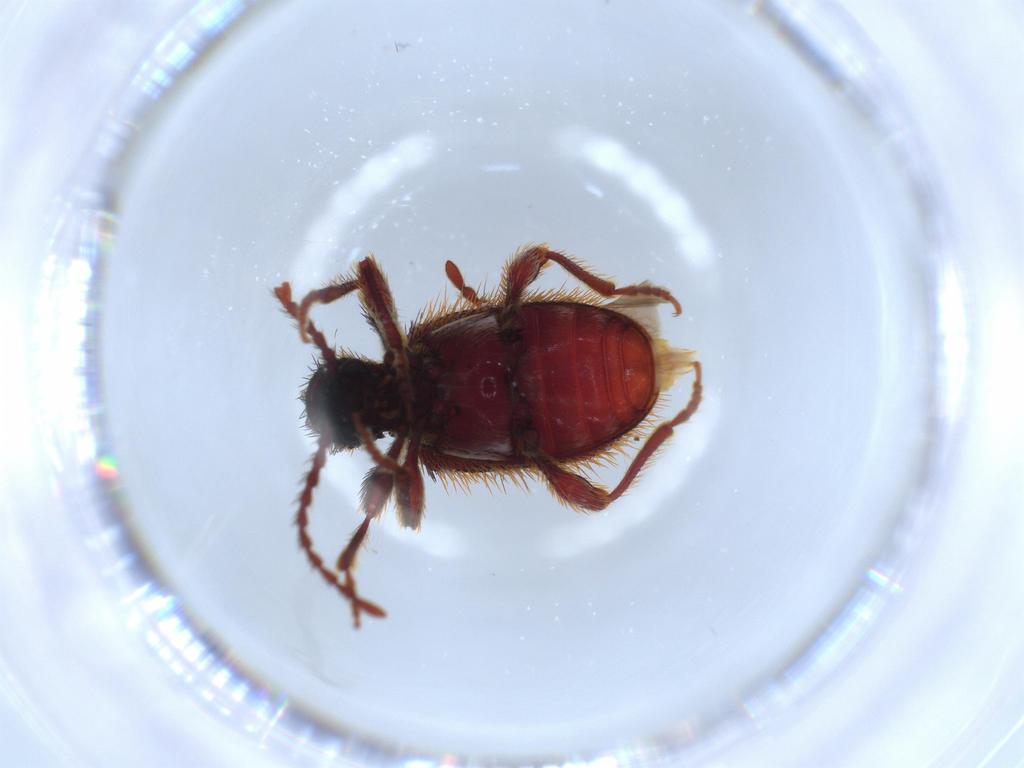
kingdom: Animalia
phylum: Arthropoda
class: Insecta
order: Coleoptera
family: Ptinidae
